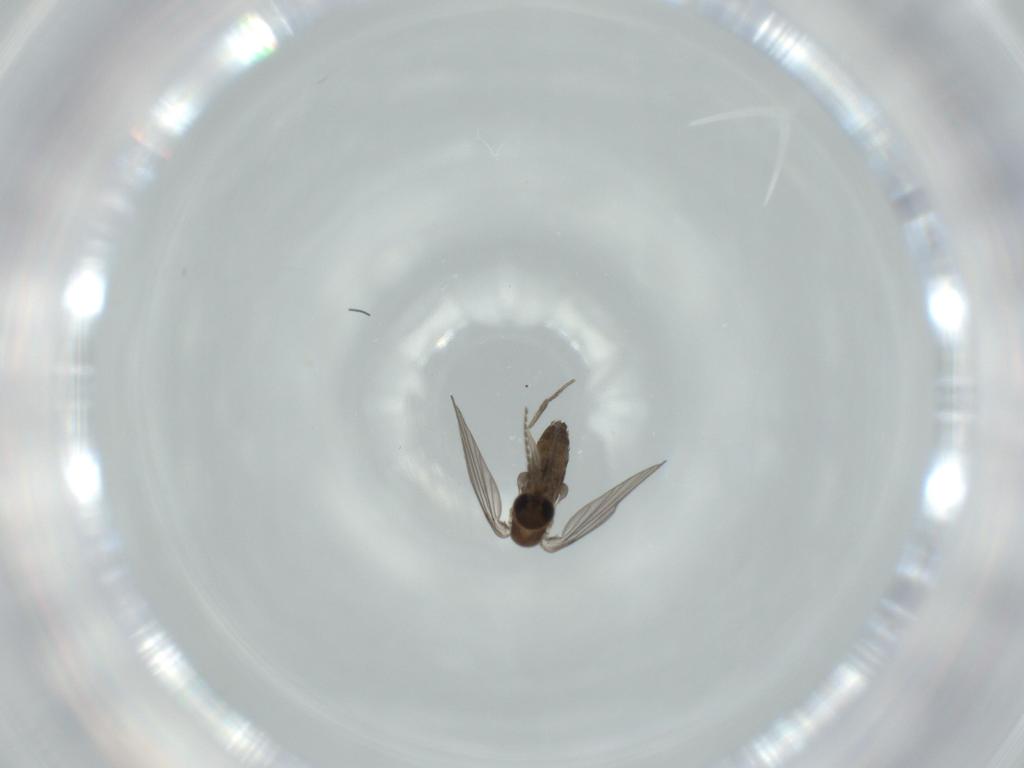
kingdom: Animalia
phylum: Arthropoda
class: Insecta
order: Diptera
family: Psychodidae
